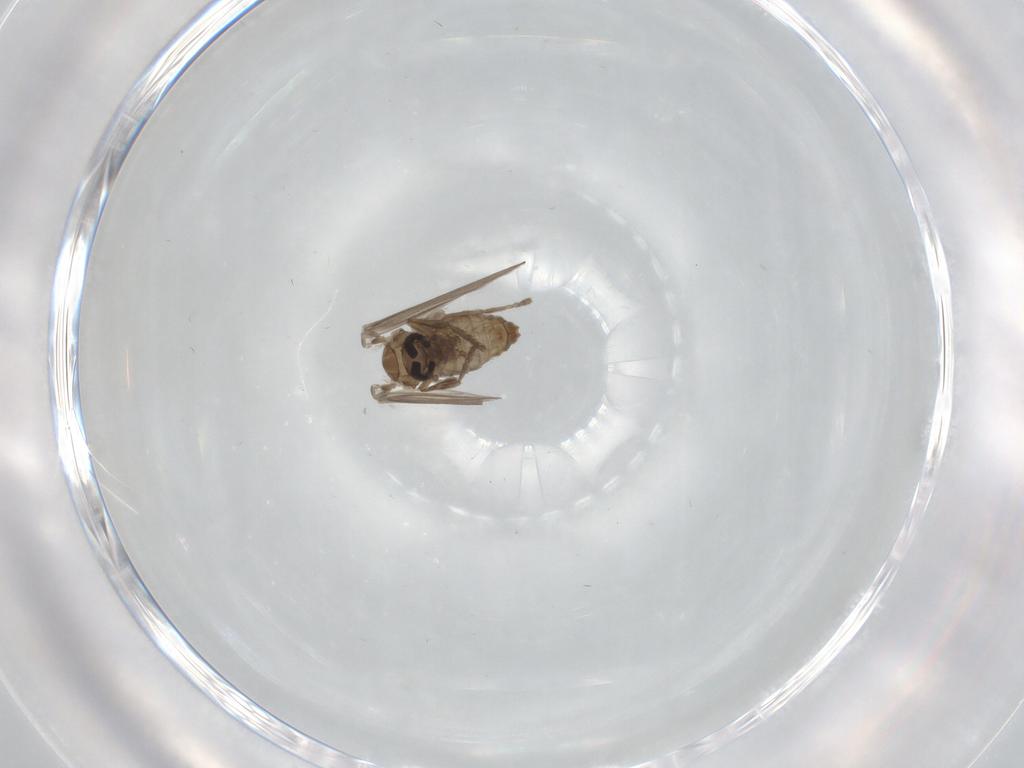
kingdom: Animalia
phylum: Arthropoda
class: Insecta
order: Diptera
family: Psychodidae
